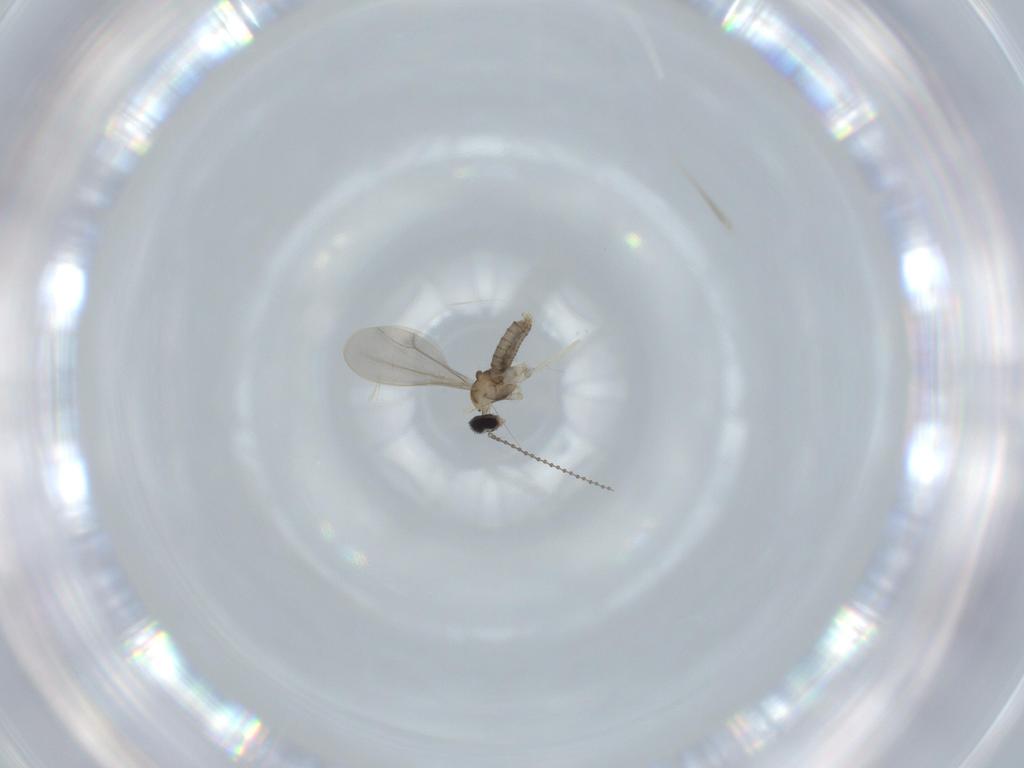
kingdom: Animalia
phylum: Arthropoda
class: Insecta
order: Diptera
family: Cecidomyiidae
